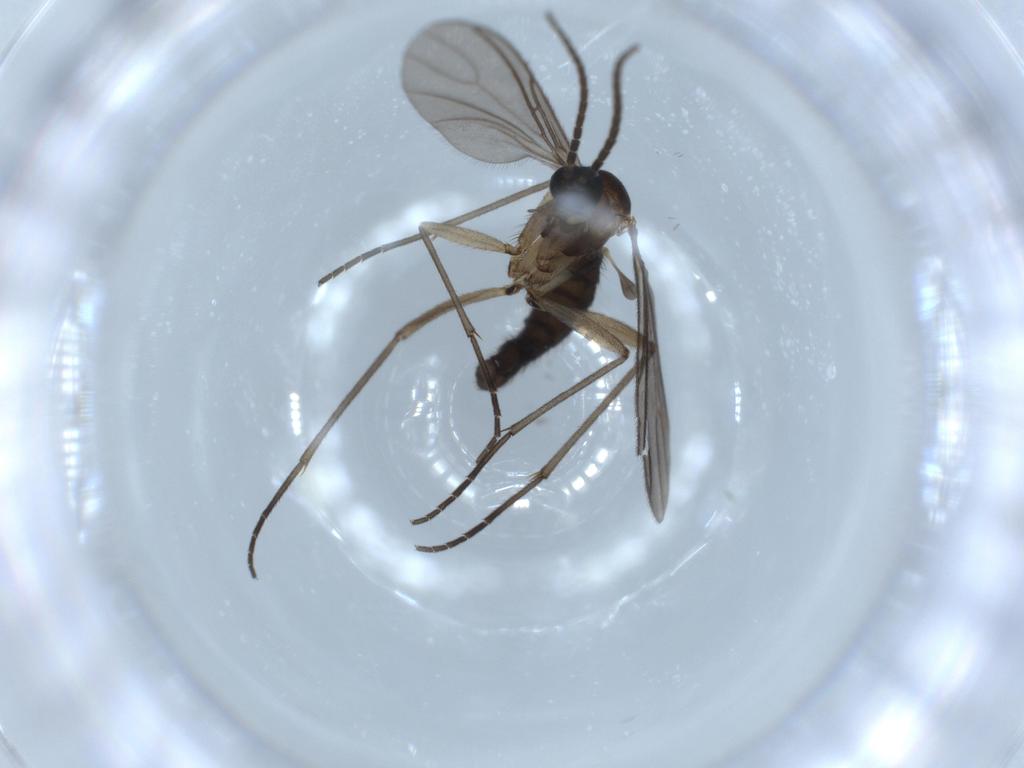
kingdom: Animalia
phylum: Arthropoda
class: Insecta
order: Diptera
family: Sciaridae
